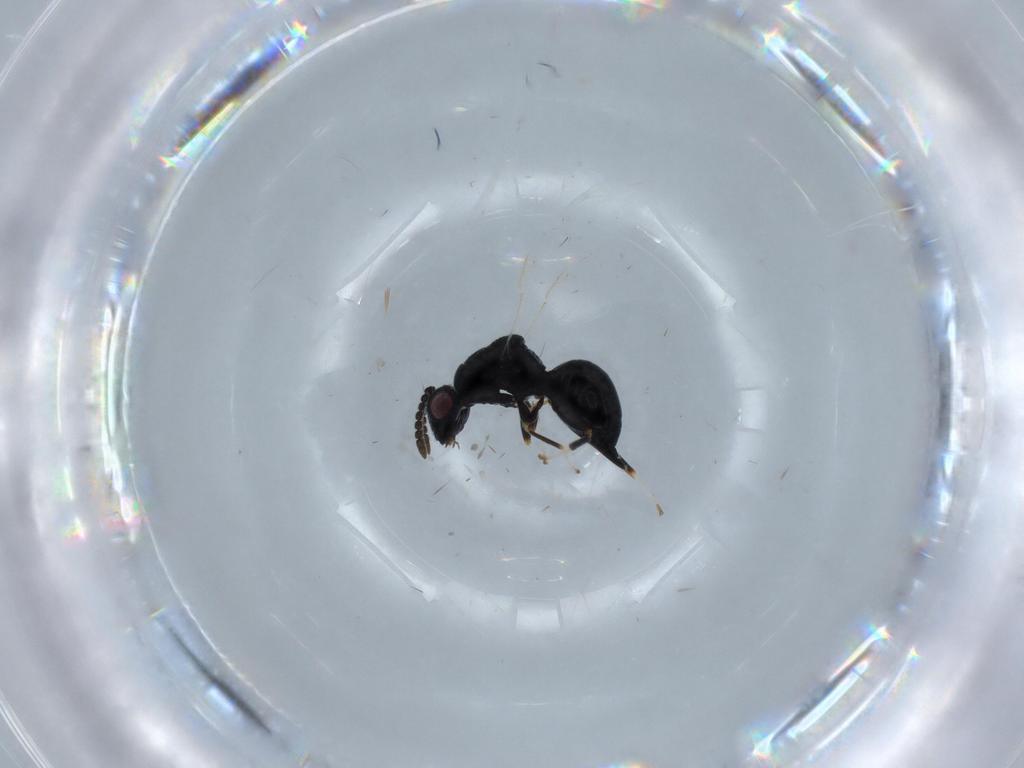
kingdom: Animalia
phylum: Arthropoda
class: Insecta
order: Hymenoptera
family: Eurytomidae
